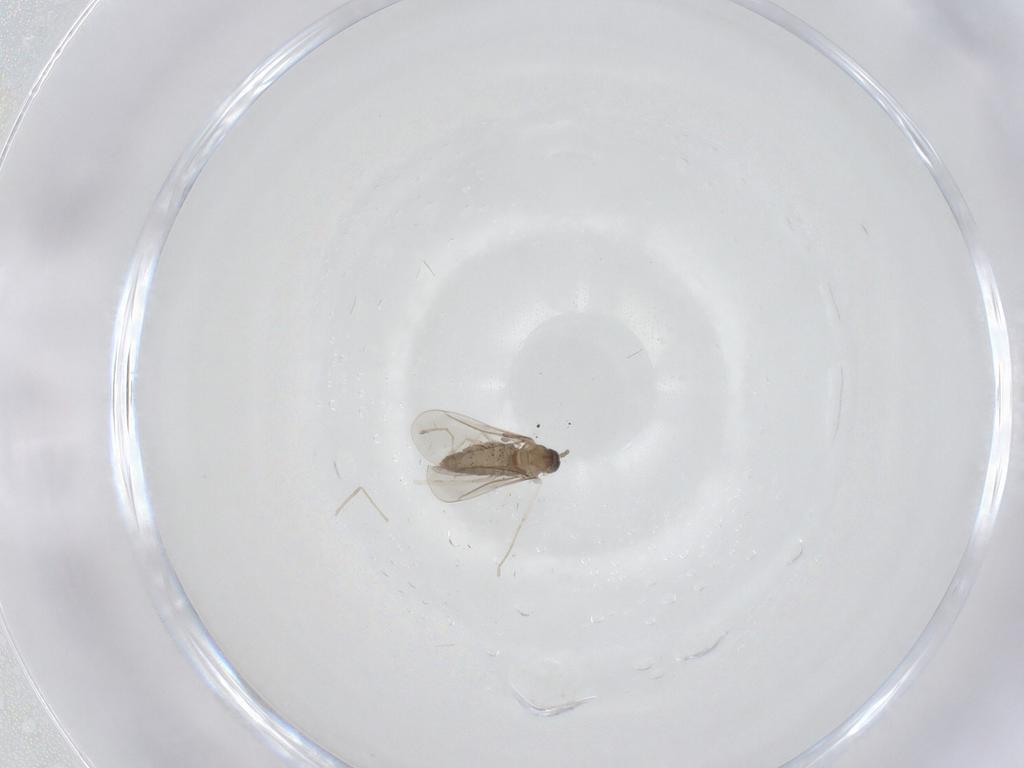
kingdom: Animalia
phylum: Arthropoda
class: Insecta
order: Diptera
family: Cecidomyiidae
